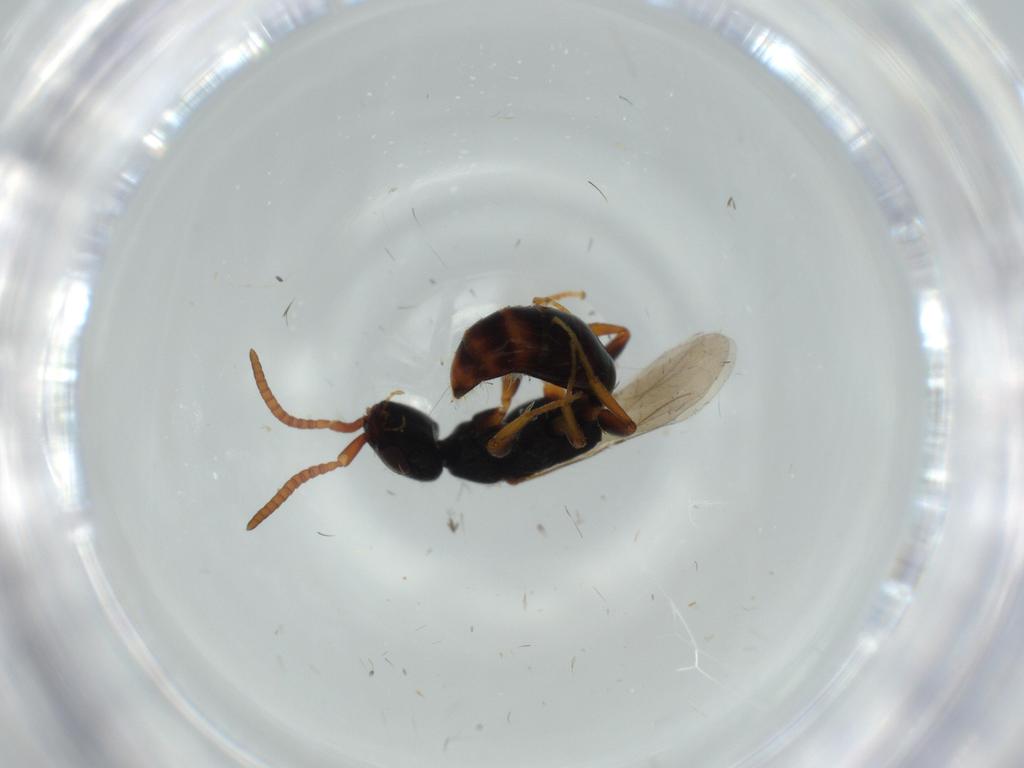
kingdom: Animalia
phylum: Arthropoda
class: Insecta
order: Hymenoptera
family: Bethylidae
